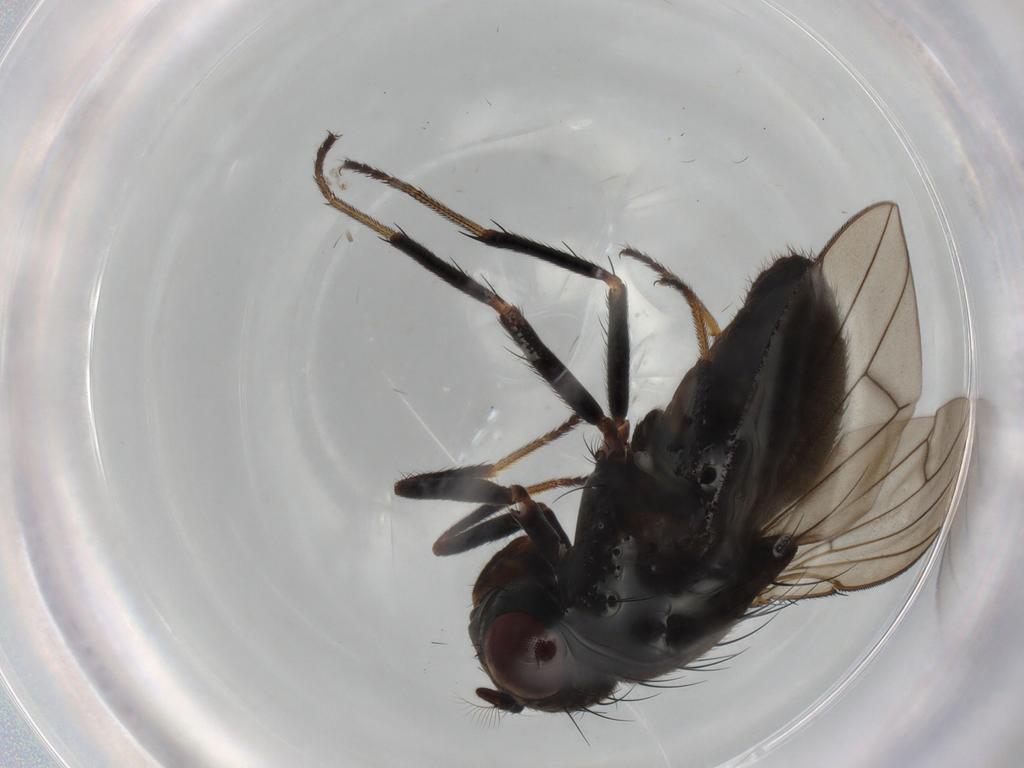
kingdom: Animalia
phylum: Arthropoda
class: Insecta
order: Diptera
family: Ephydridae
